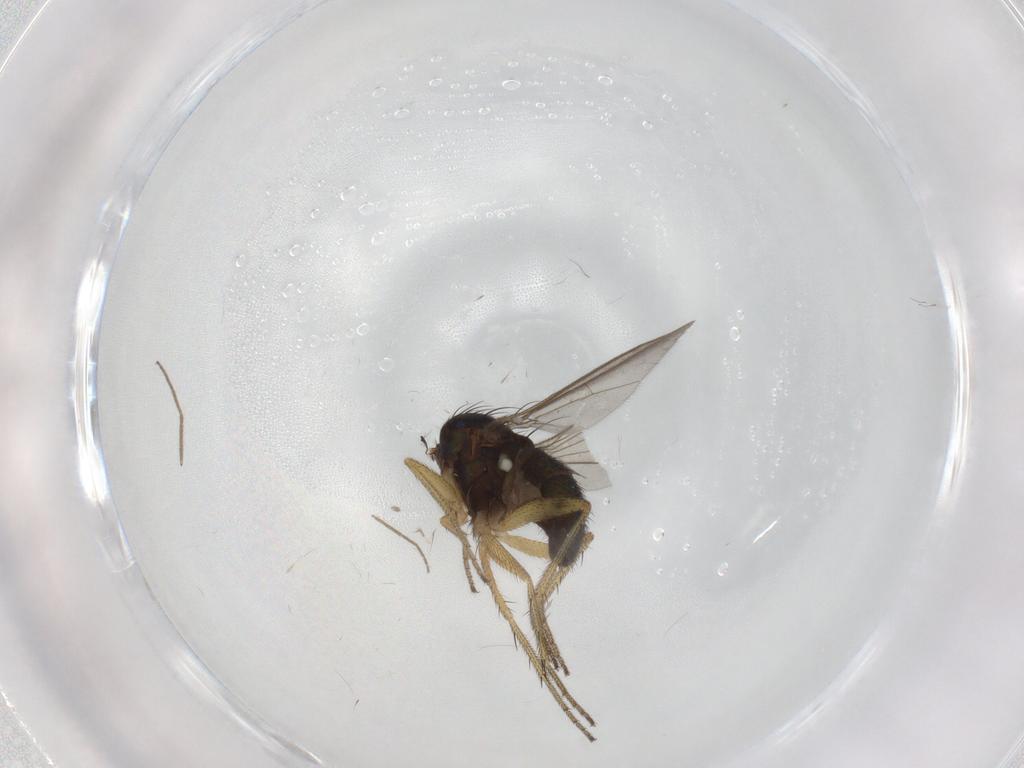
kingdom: Animalia
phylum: Arthropoda
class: Insecta
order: Diptera
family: Dolichopodidae
